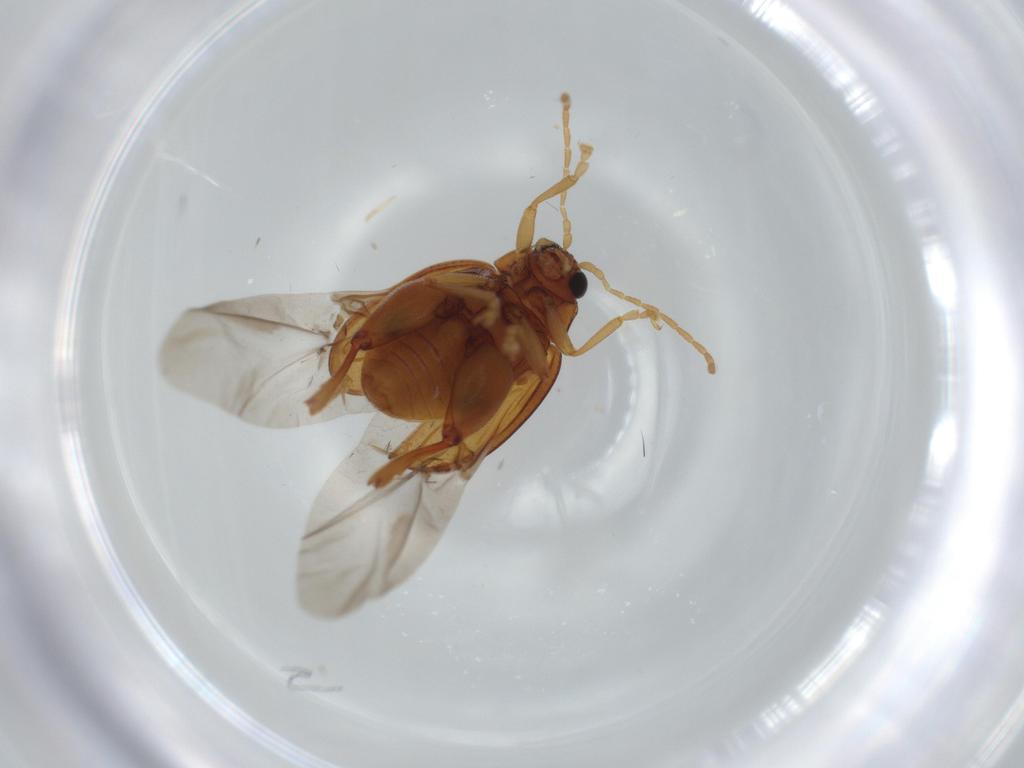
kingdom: Animalia
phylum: Arthropoda
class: Insecta
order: Coleoptera
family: Chrysomelidae
